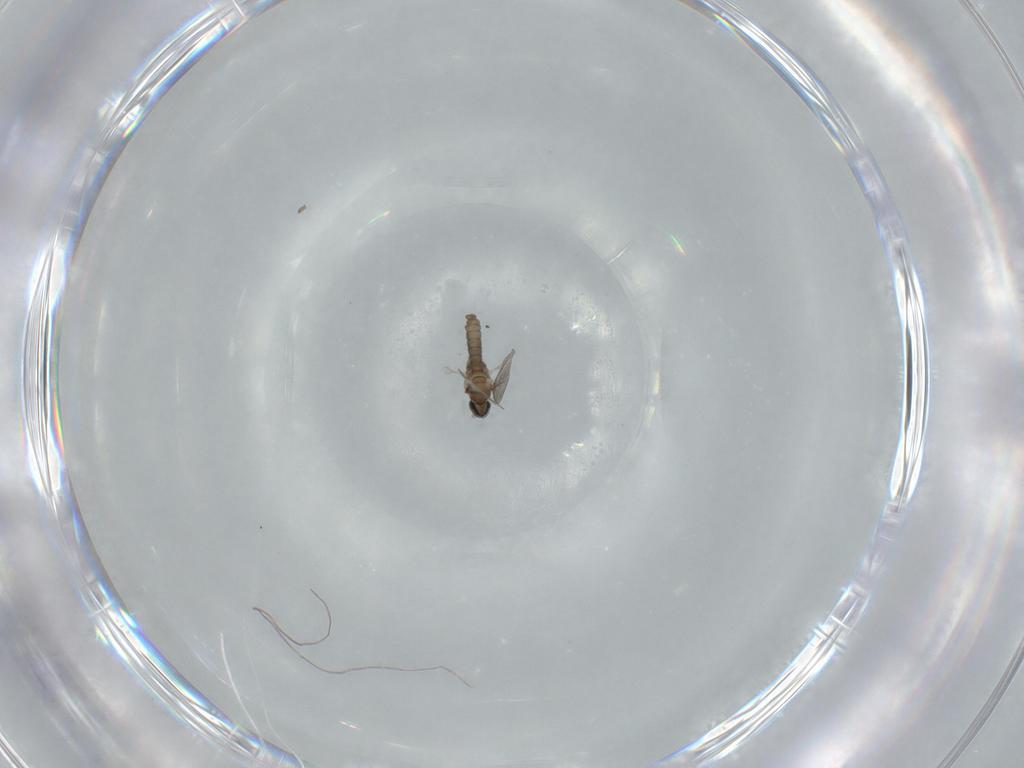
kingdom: Animalia
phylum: Arthropoda
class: Insecta
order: Diptera
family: Cecidomyiidae
